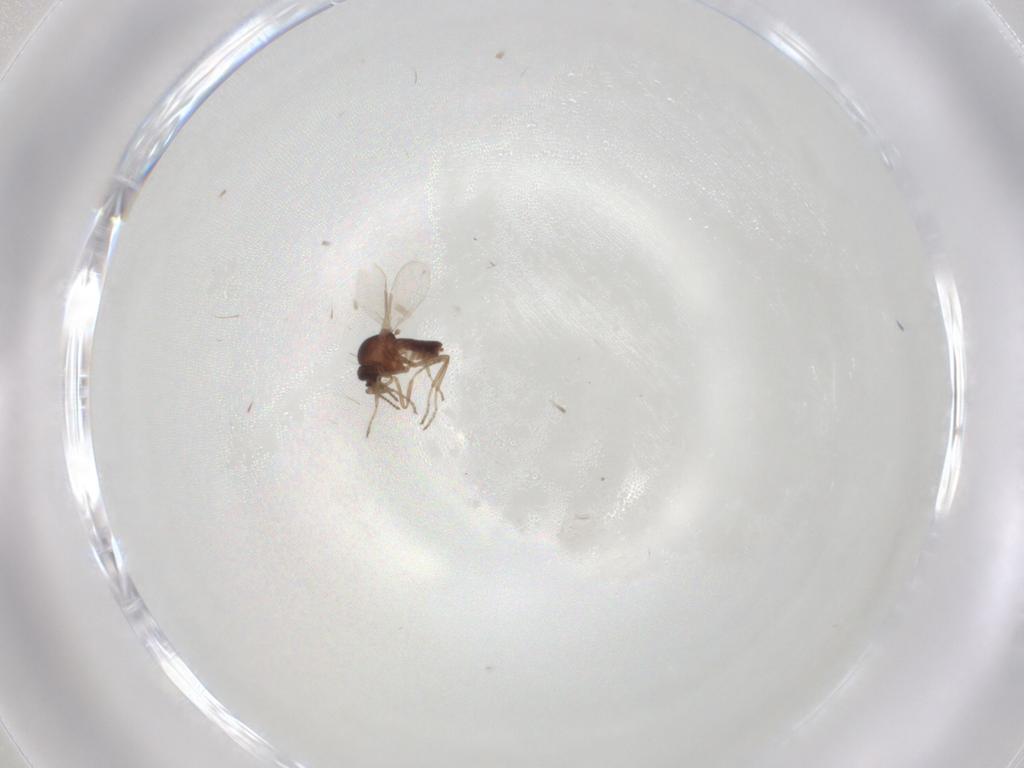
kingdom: Animalia
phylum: Arthropoda
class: Insecta
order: Diptera
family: Ceratopogonidae
